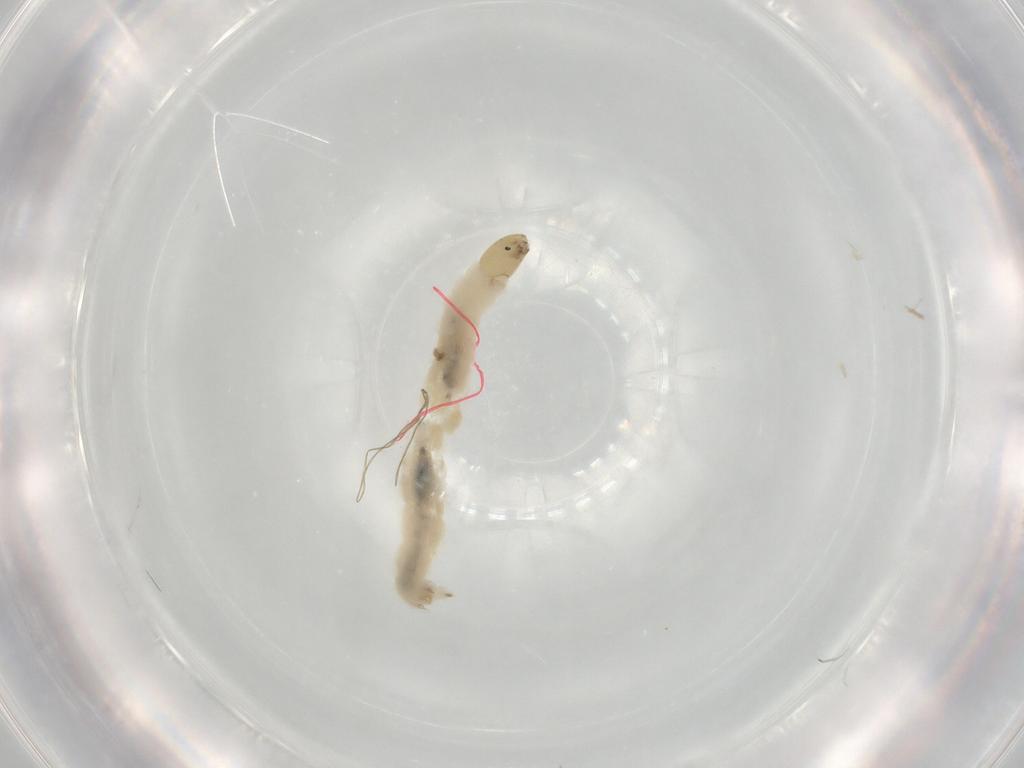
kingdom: Animalia
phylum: Arthropoda
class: Insecta
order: Diptera
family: Chironomidae
